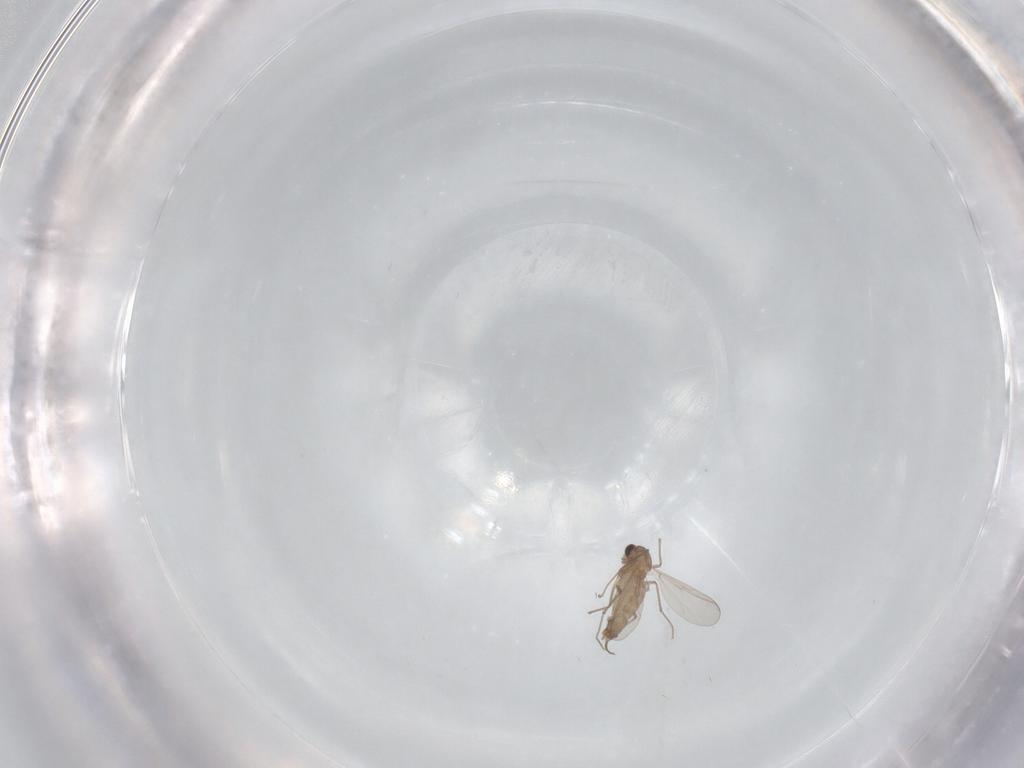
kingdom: Animalia
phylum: Arthropoda
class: Insecta
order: Diptera
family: Chironomidae
